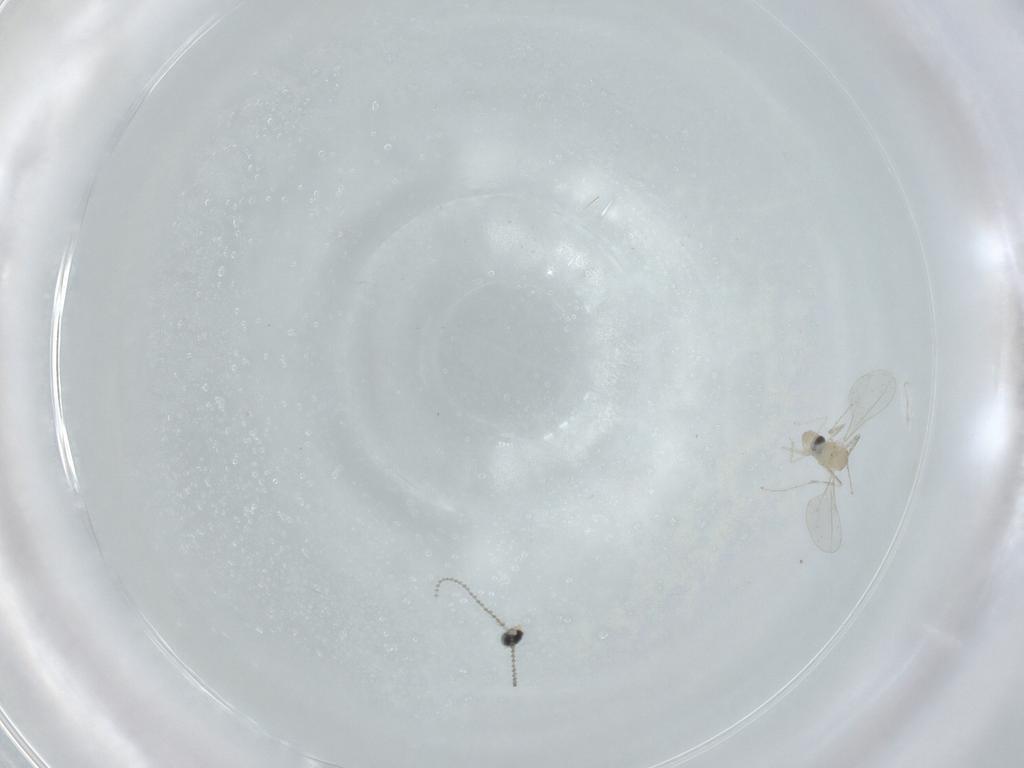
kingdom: Animalia
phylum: Arthropoda
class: Insecta
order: Diptera
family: Cecidomyiidae
